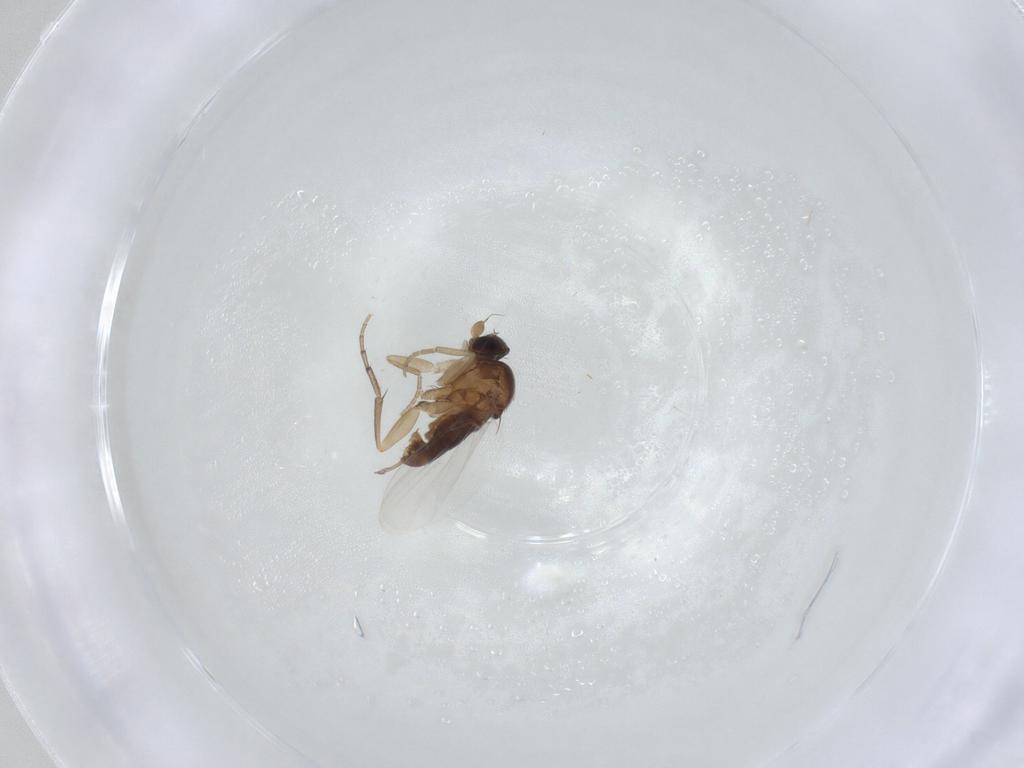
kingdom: Animalia
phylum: Arthropoda
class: Insecta
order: Diptera
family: Phoridae
